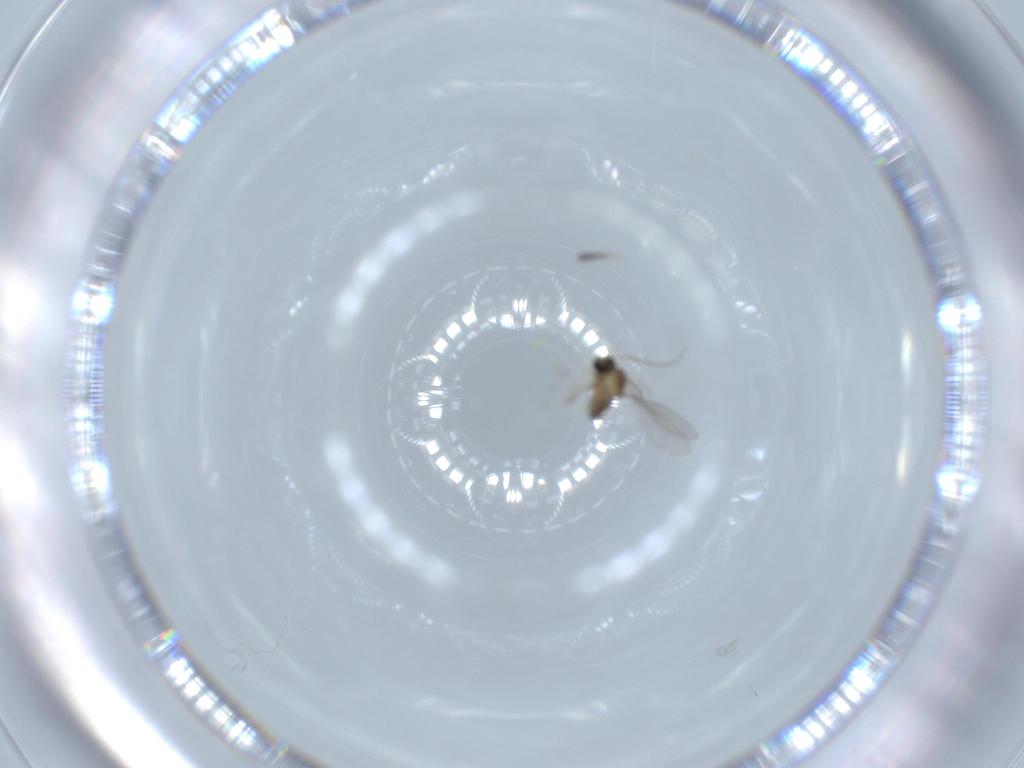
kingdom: Animalia
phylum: Arthropoda
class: Insecta
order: Diptera
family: Cecidomyiidae
